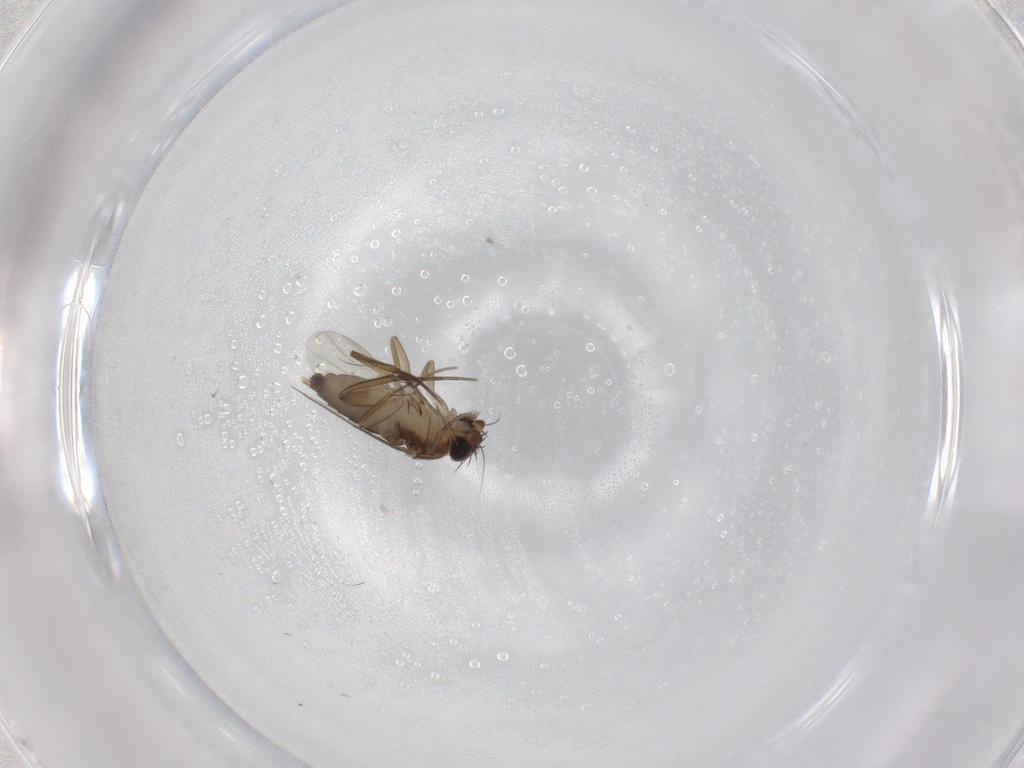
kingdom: Animalia
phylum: Arthropoda
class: Insecta
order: Diptera
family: Phoridae
